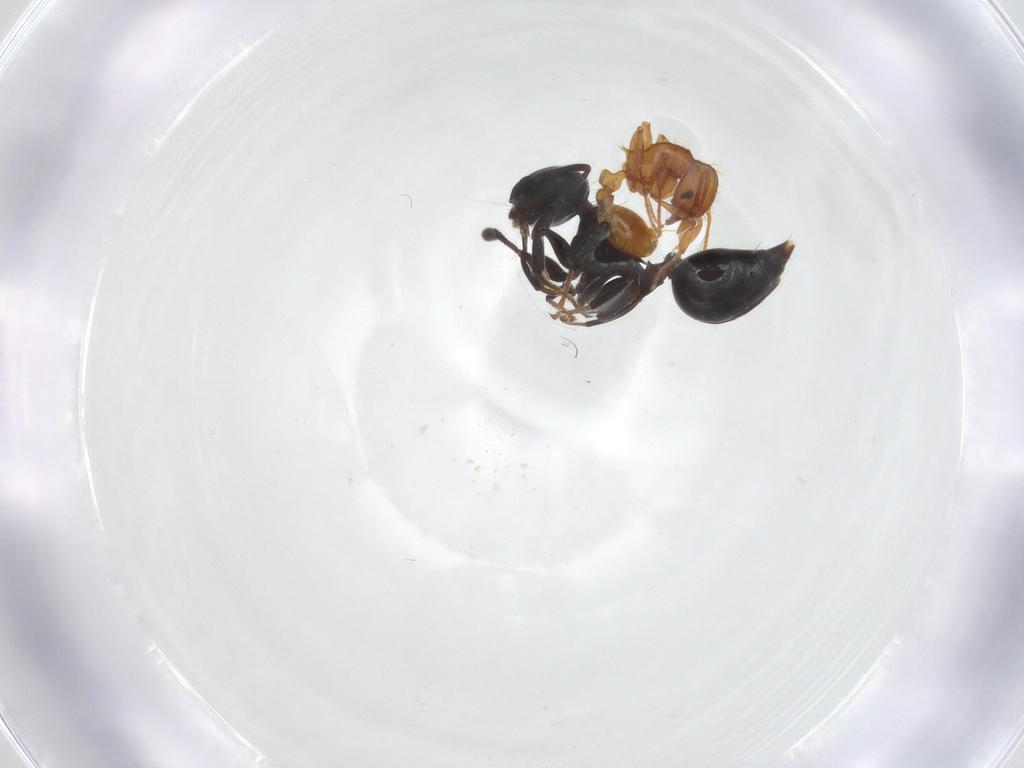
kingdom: Animalia
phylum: Arthropoda
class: Insecta
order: Hymenoptera
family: Formicidae
